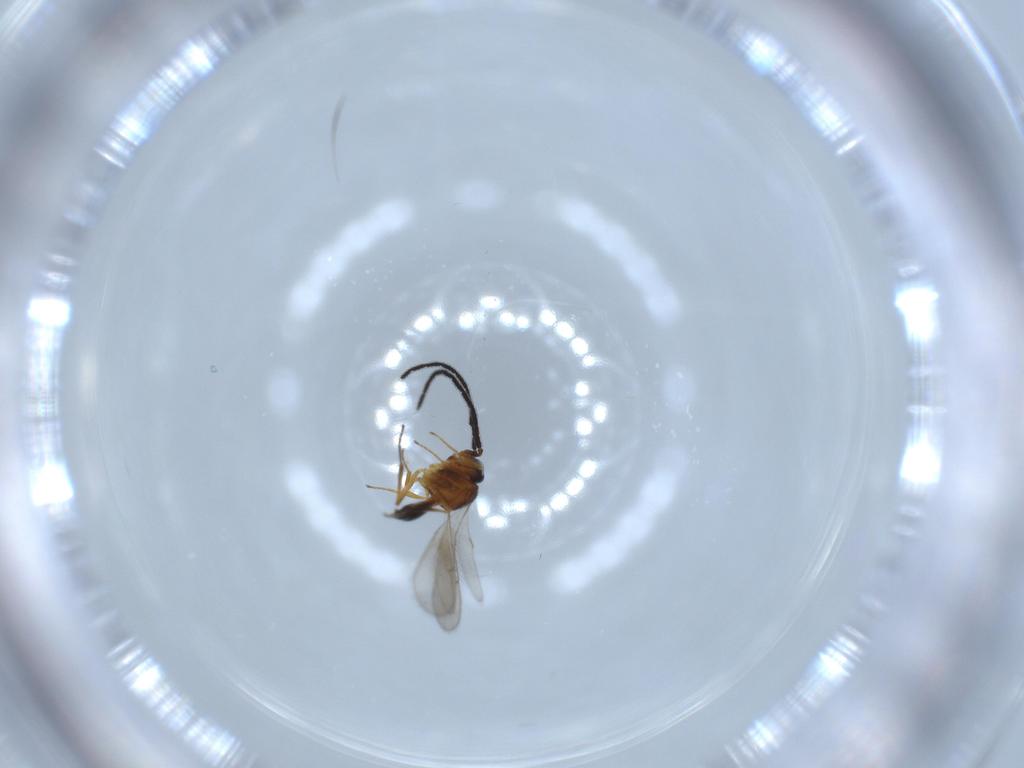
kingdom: Animalia
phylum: Arthropoda
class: Insecta
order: Hymenoptera
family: Scelionidae
